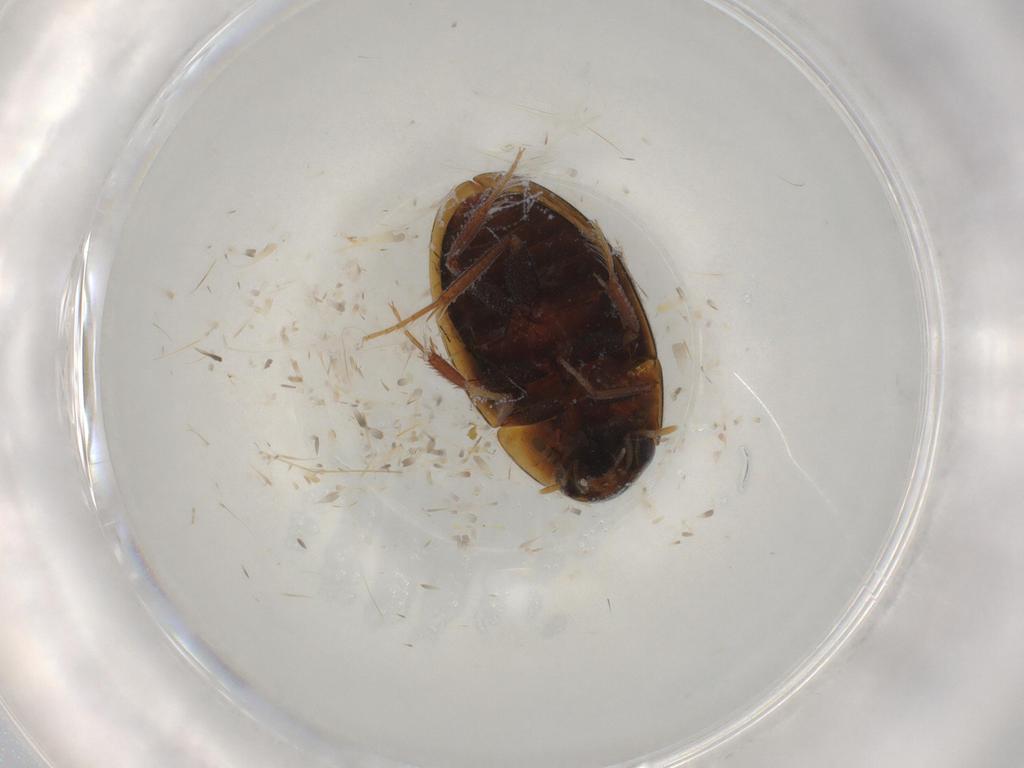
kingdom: Animalia
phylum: Arthropoda
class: Insecta
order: Coleoptera
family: Hydrophilidae
